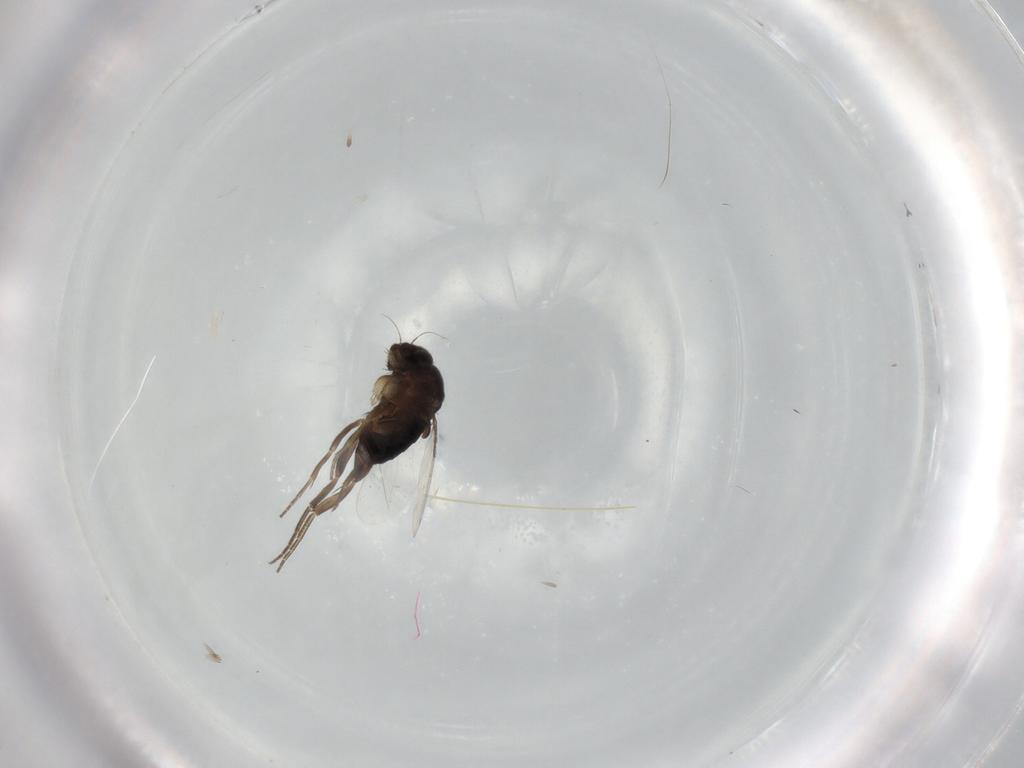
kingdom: Animalia
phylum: Arthropoda
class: Insecta
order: Diptera
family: Phoridae
